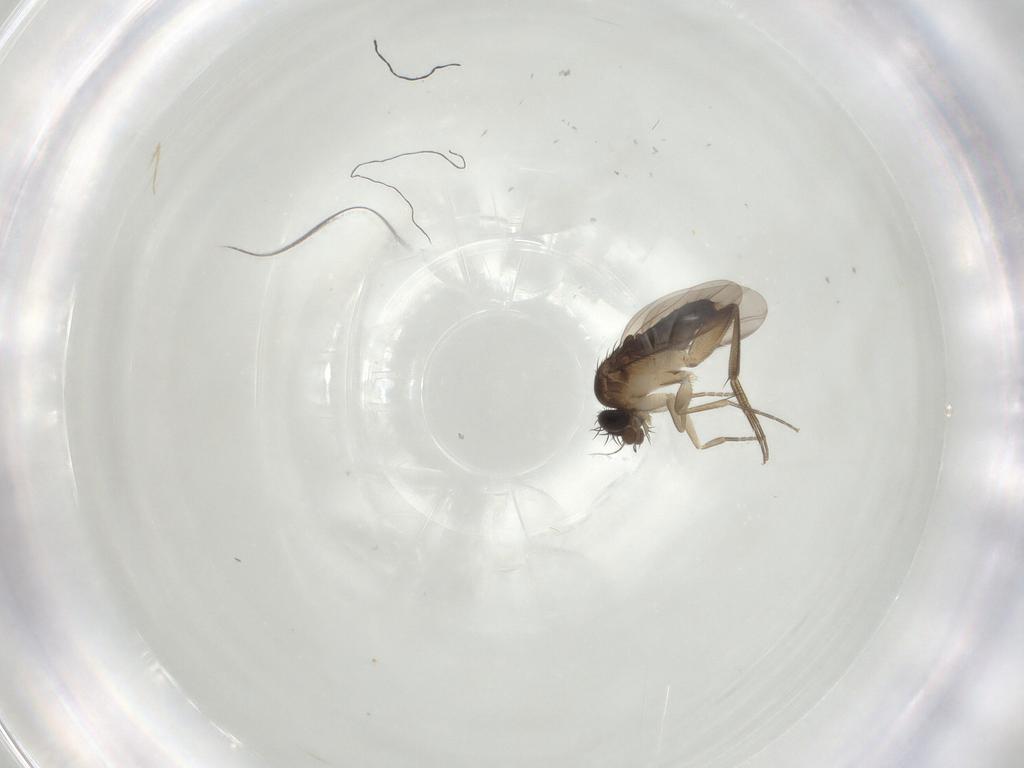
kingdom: Animalia
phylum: Arthropoda
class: Insecta
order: Diptera
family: Phoridae
